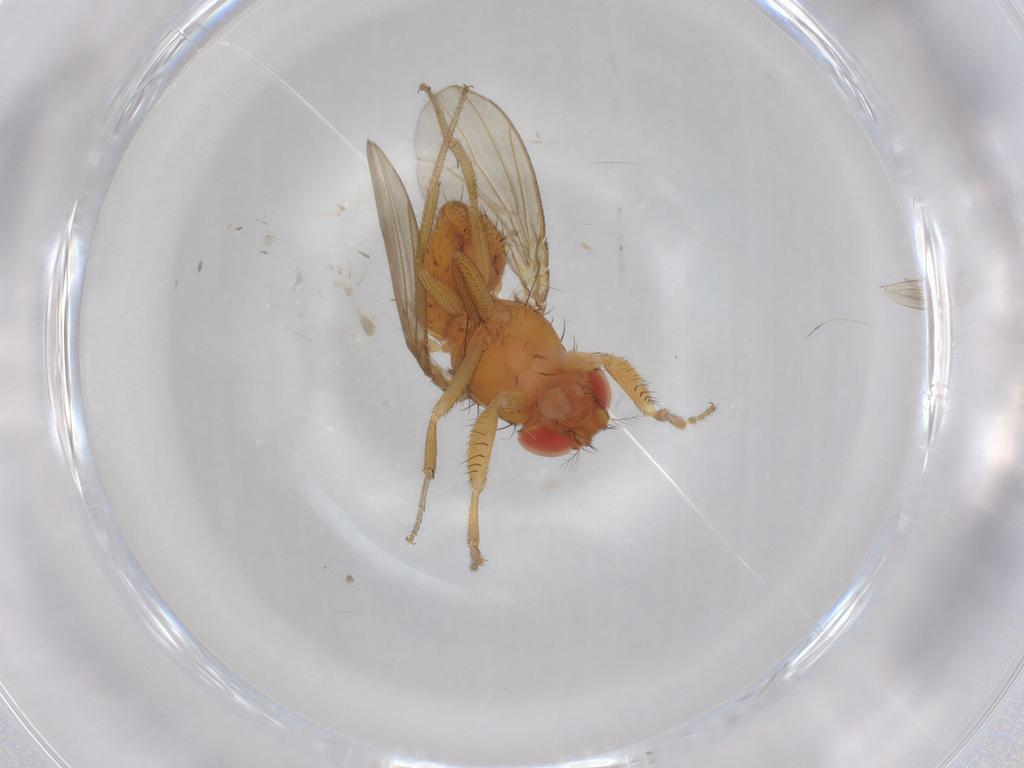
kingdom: Animalia
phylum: Arthropoda
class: Insecta
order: Diptera
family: Drosophilidae
